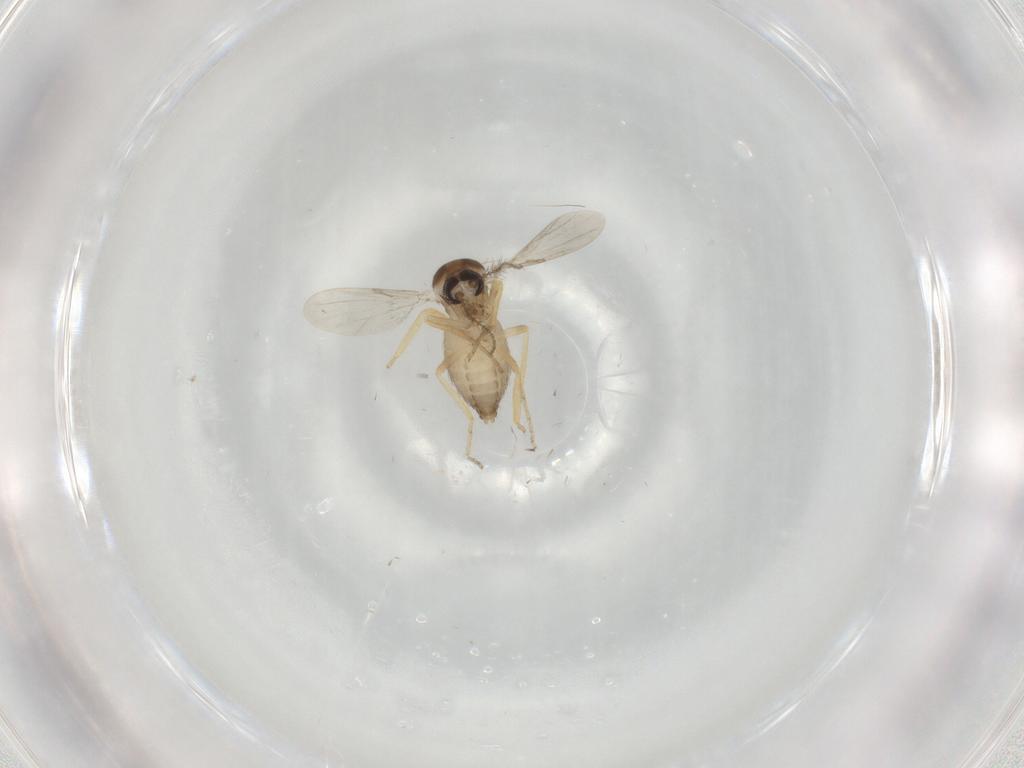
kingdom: Animalia
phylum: Arthropoda
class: Insecta
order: Diptera
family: Ceratopogonidae
